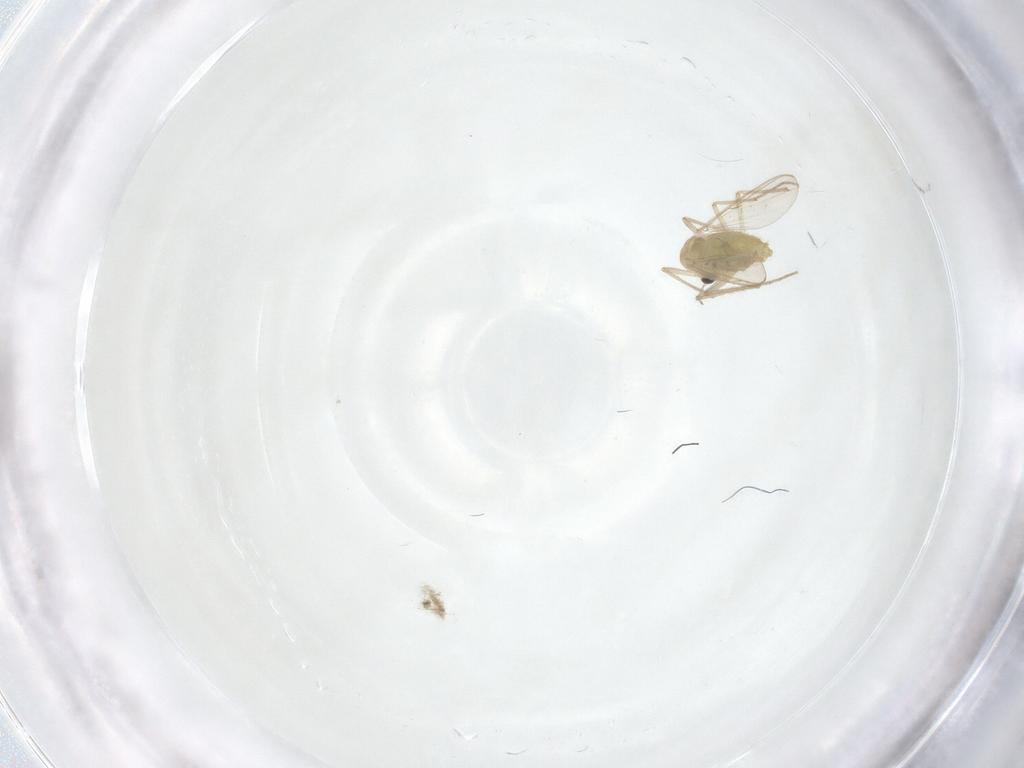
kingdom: Animalia
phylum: Arthropoda
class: Insecta
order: Diptera
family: Chironomidae
